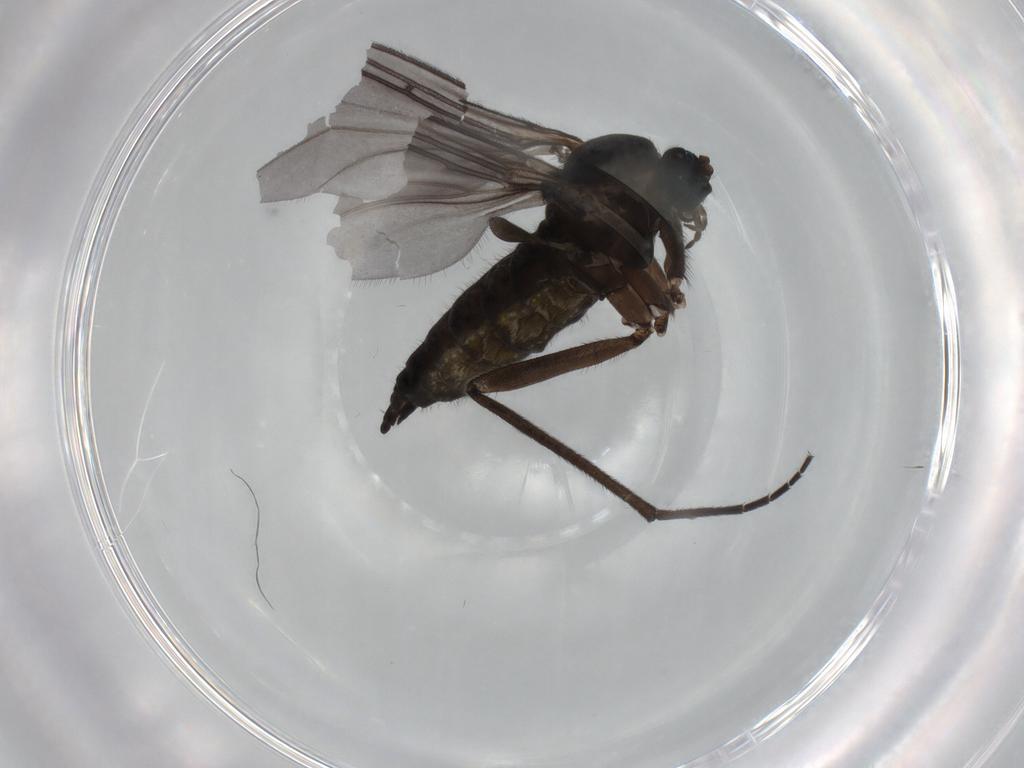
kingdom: Animalia
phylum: Arthropoda
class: Insecta
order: Diptera
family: Sciaridae
